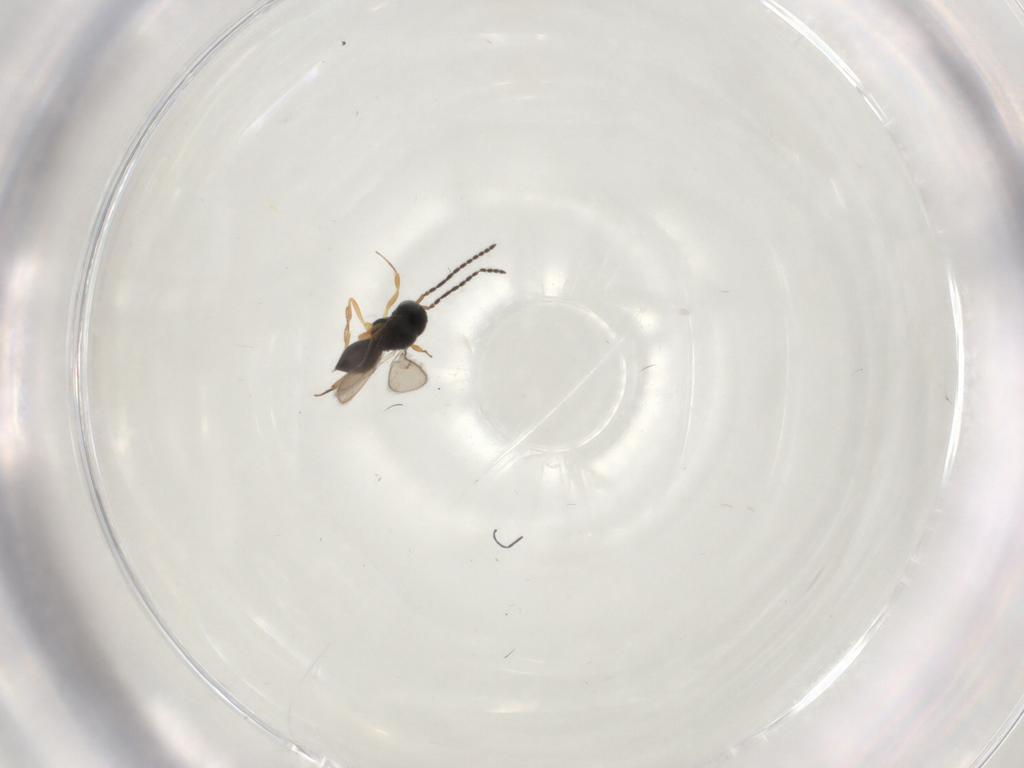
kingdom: Animalia
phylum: Arthropoda
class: Insecta
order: Hymenoptera
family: Scelionidae
